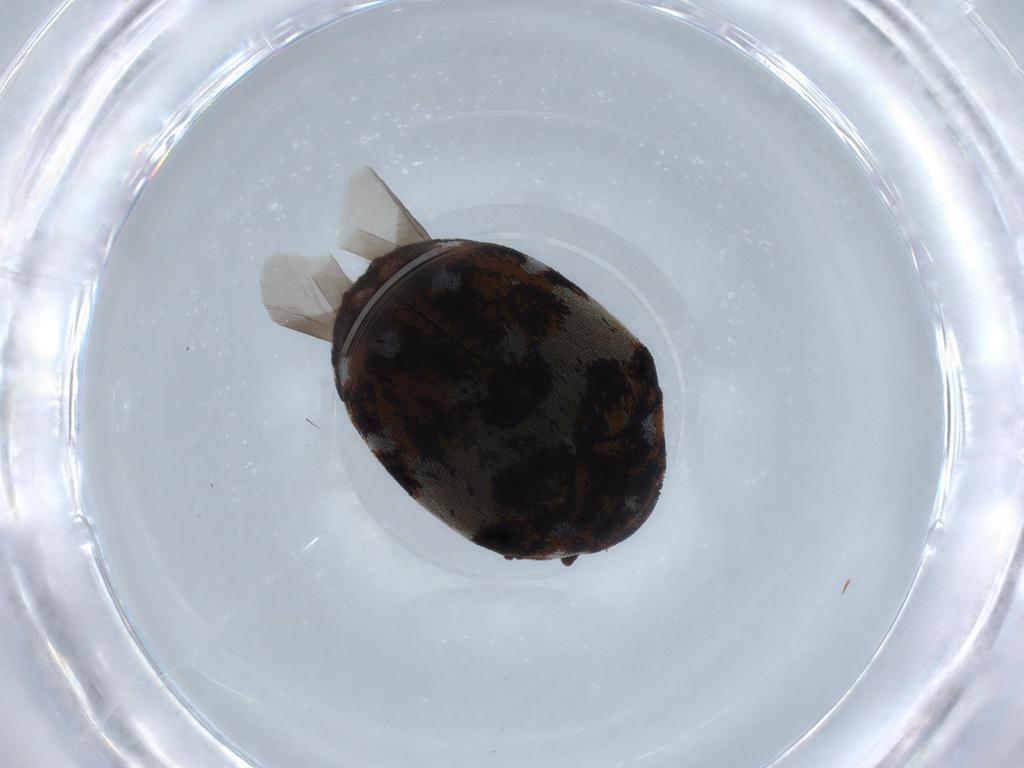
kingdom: Animalia
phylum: Arthropoda
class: Insecta
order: Coleoptera
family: Dermestidae
